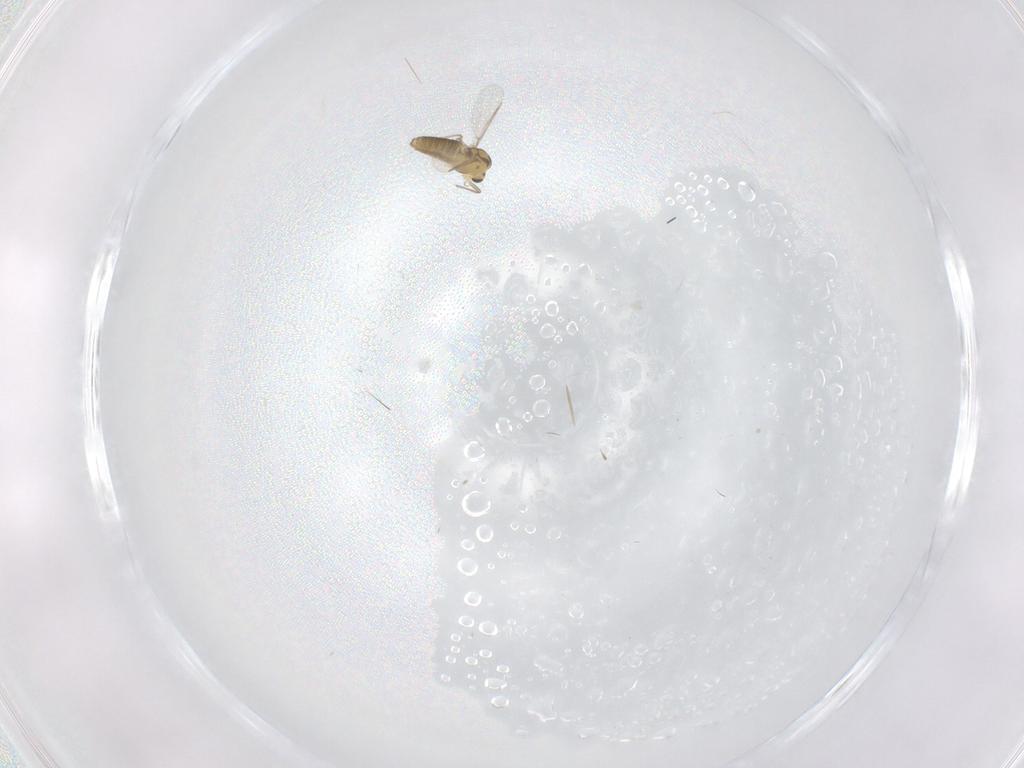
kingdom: Animalia
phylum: Arthropoda
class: Insecta
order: Diptera
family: Chironomidae
